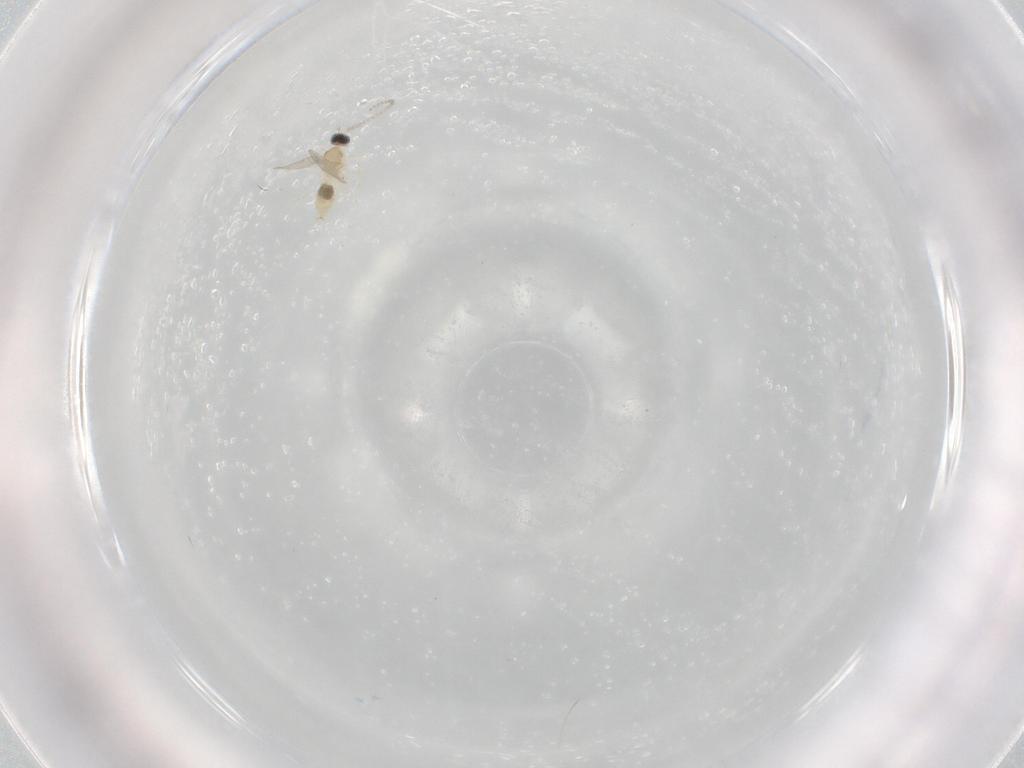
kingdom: Animalia
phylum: Arthropoda
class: Insecta
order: Diptera
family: Cecidomyiidae
